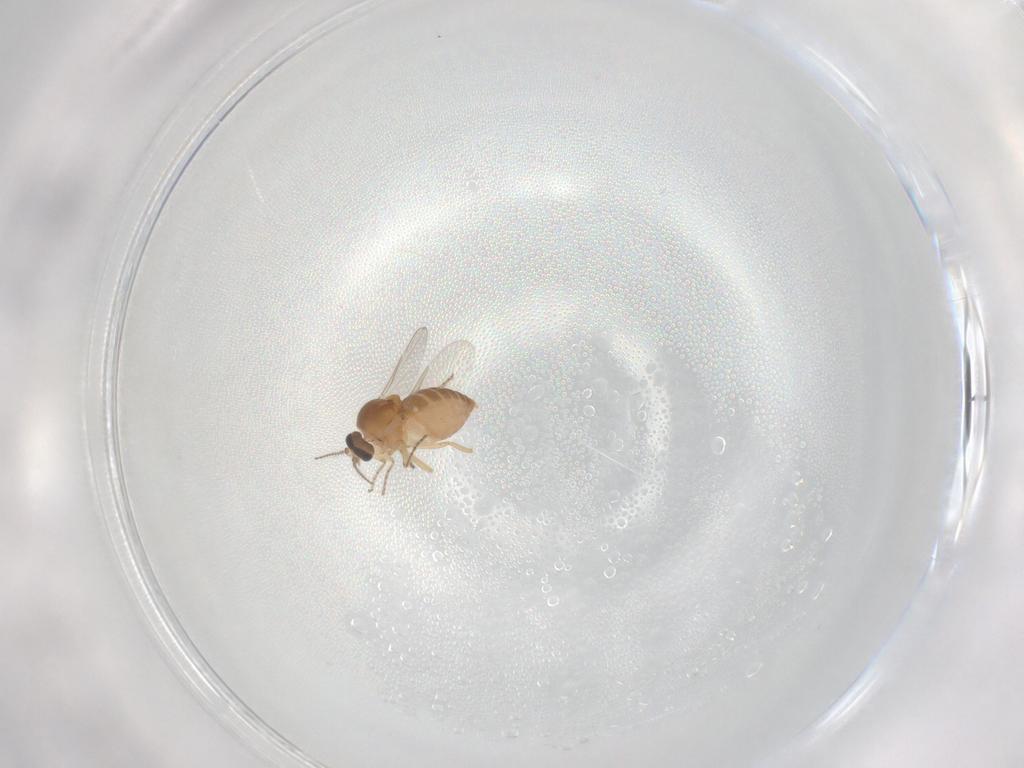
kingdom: Animalia
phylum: Arthropoda
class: Insecta
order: Diptera
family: Ceratopogonidae
